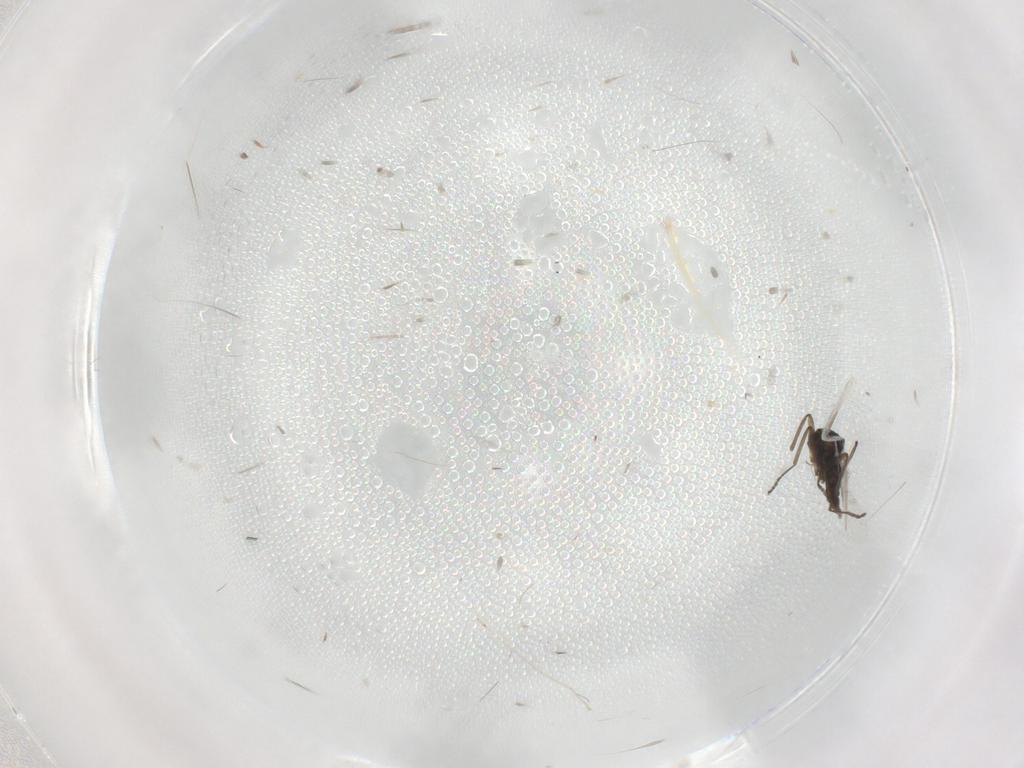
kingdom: Animalia
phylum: Arthropoda
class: Insecta
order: Diptera
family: Cecidomyiidae
